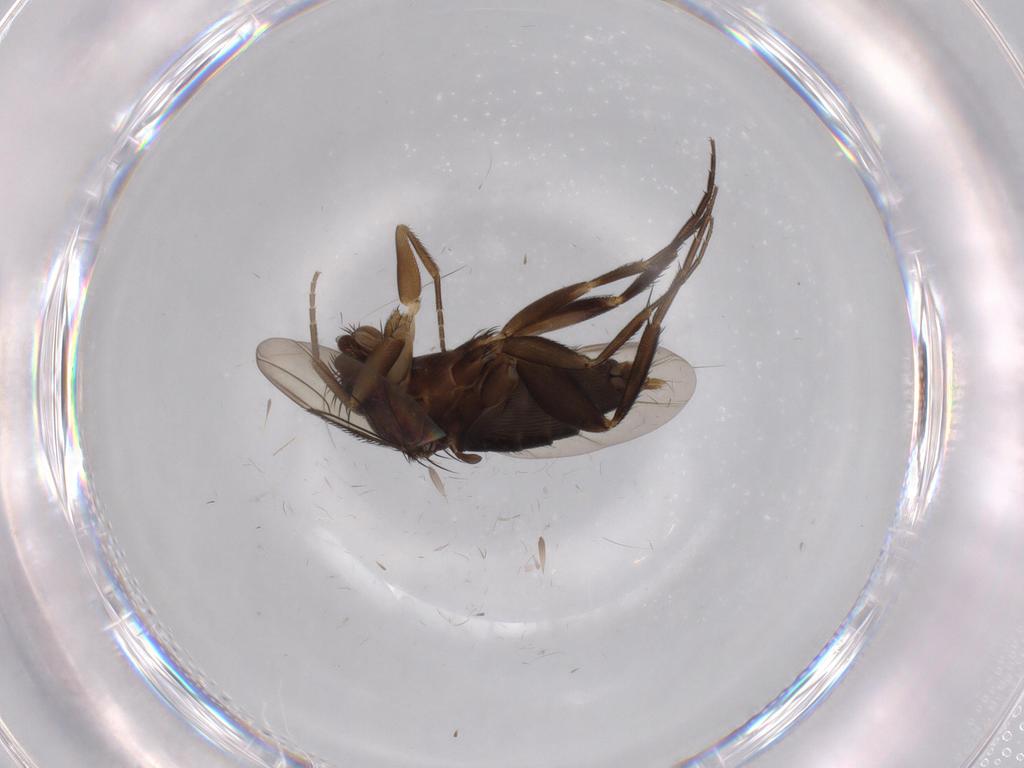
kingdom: Animalia
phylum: Arthropoda
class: Insecta
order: Diptera
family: Phoridae
